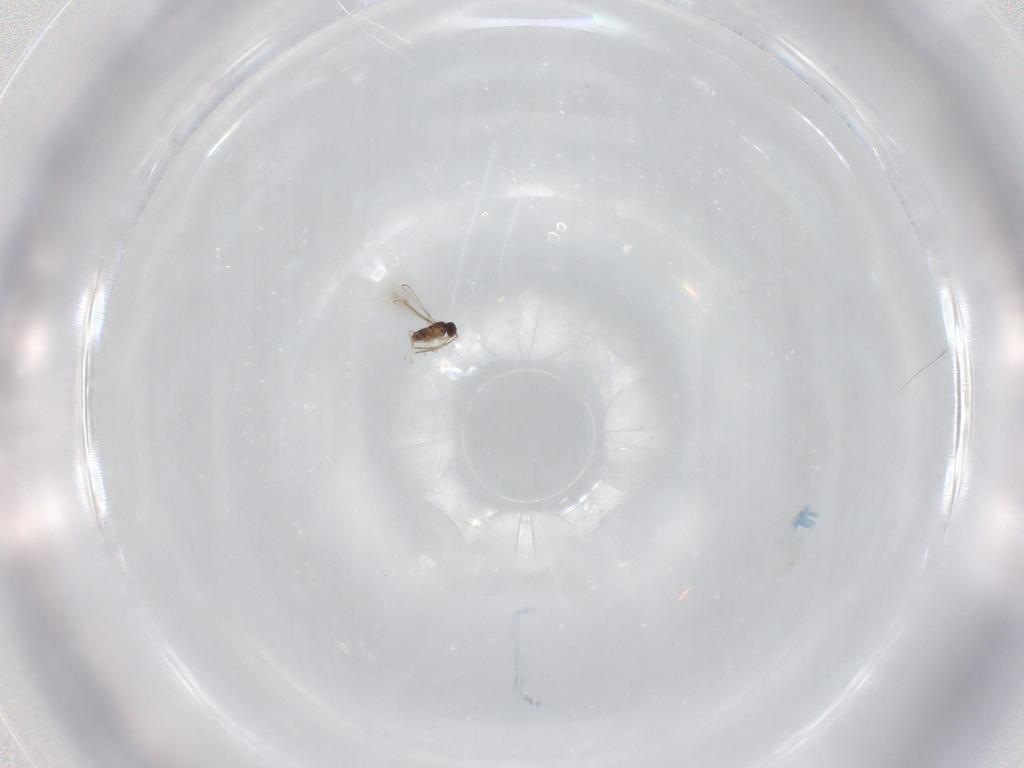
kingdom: Animalia
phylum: Arthropoda
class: Insecta
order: Hymenoptera
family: Mymaridae
